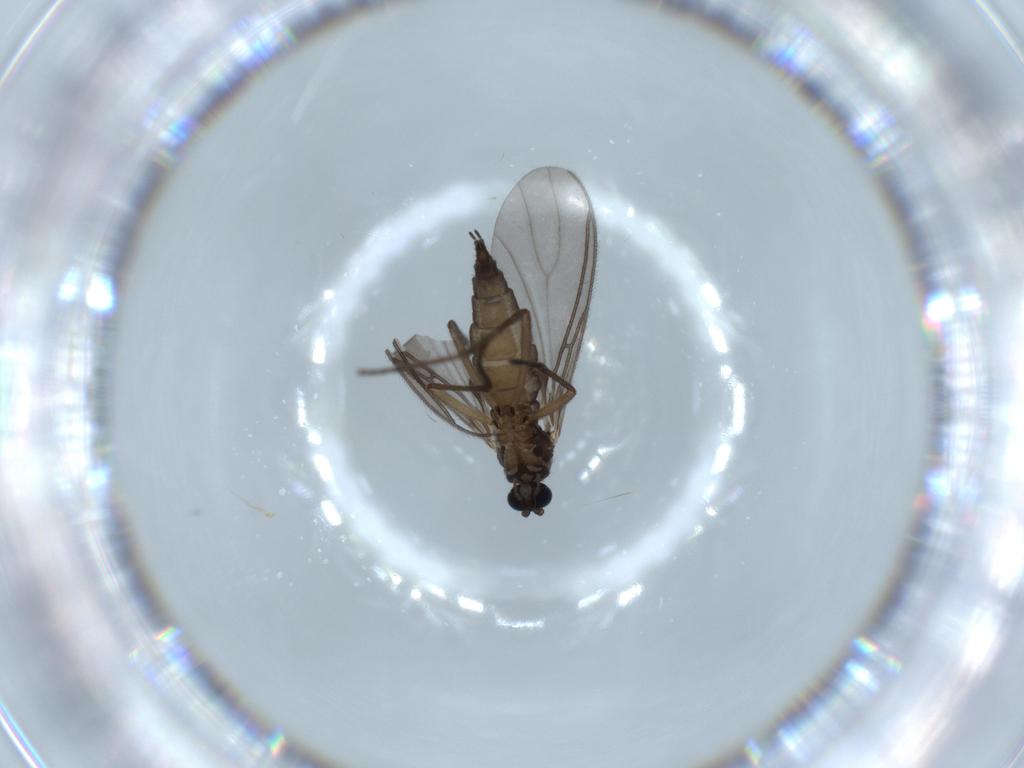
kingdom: Animalia
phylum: Arthropoda
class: Insecta
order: Diptera
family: Sciaridae
